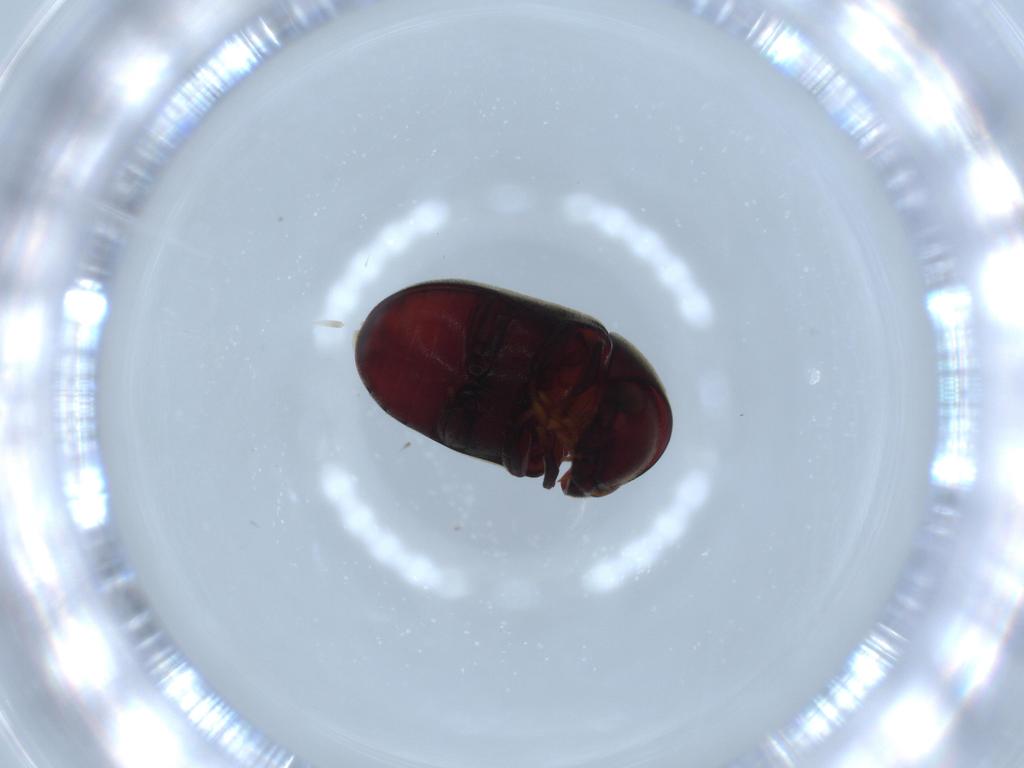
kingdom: Animalia
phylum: Arthropoda
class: Insecta
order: Coleoptera
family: Ptinidae
